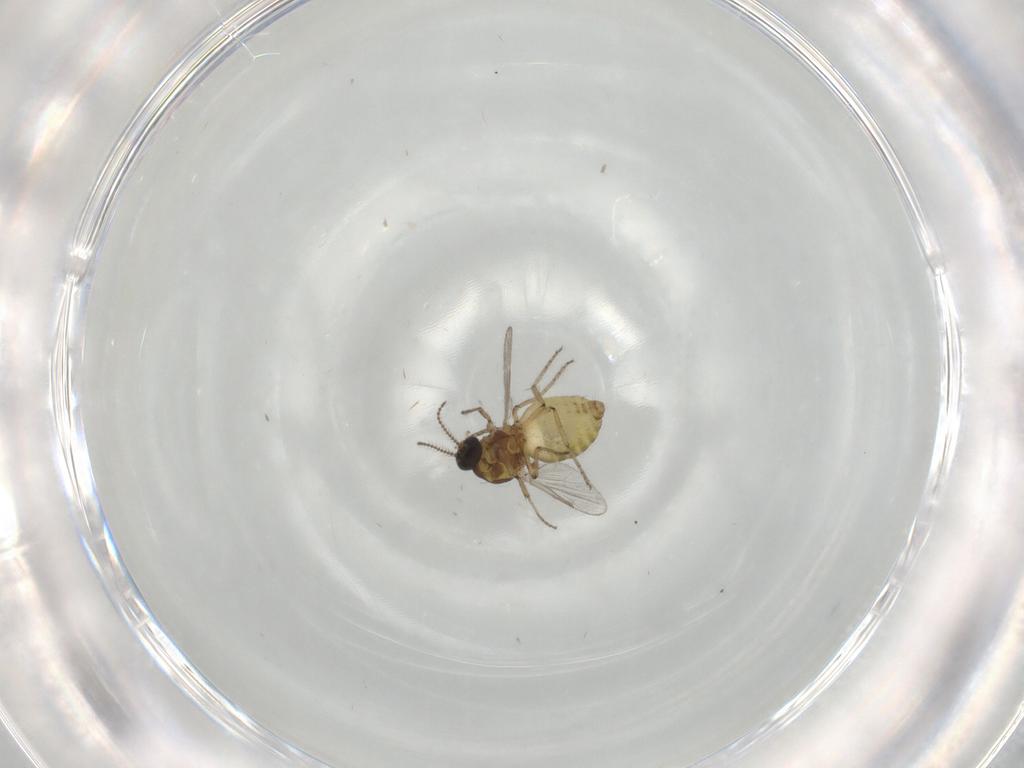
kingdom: Animalia
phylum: Arthropoda
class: Insecta
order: Diptera
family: Ceratopogonidae
